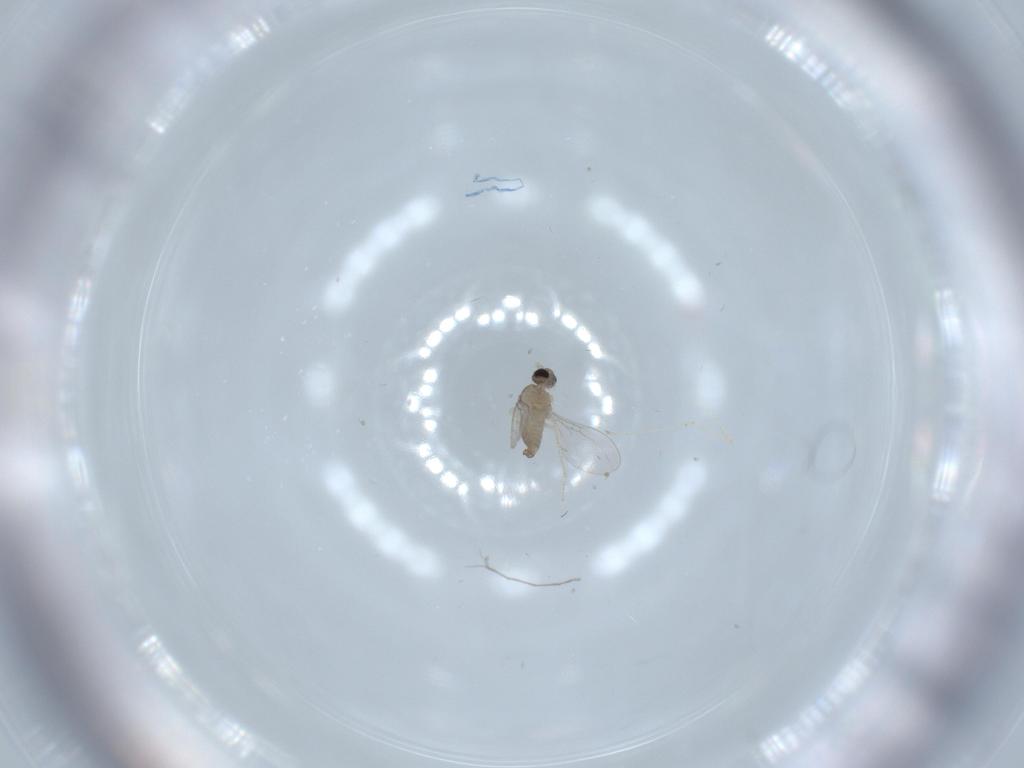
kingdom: Animalia
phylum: Arthropoda
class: Insecta
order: Diptera
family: Cecidomyiidae
